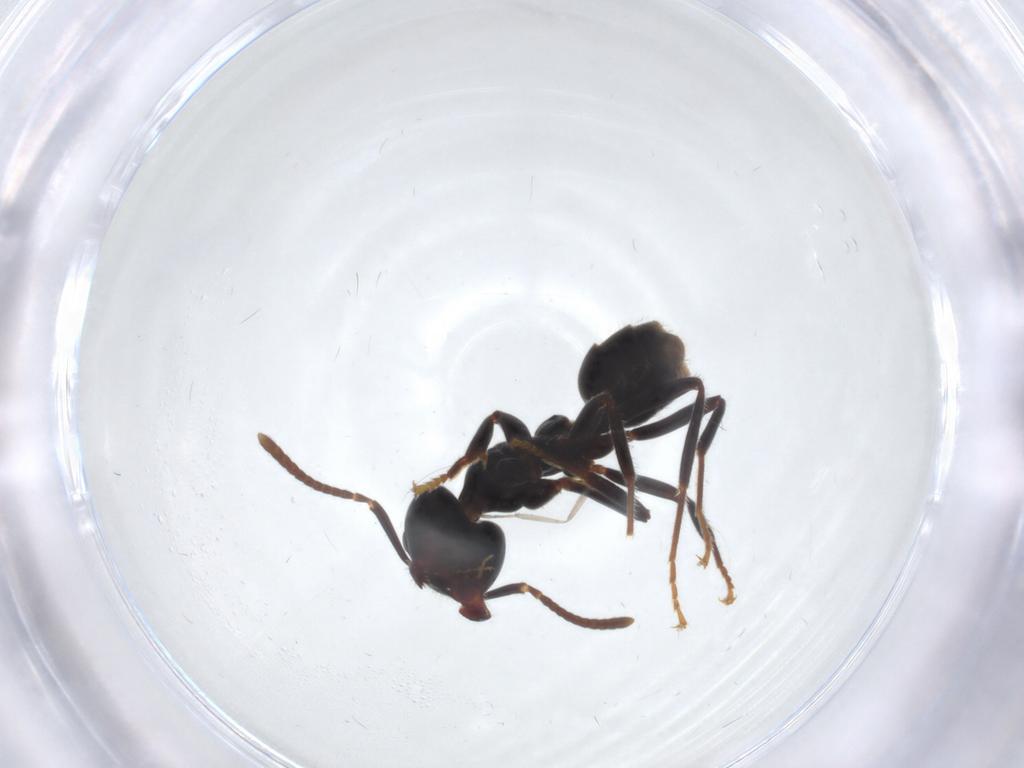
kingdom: Animalia
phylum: Arthropoda
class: Insecta
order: Hymenoptera
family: Formicidae
